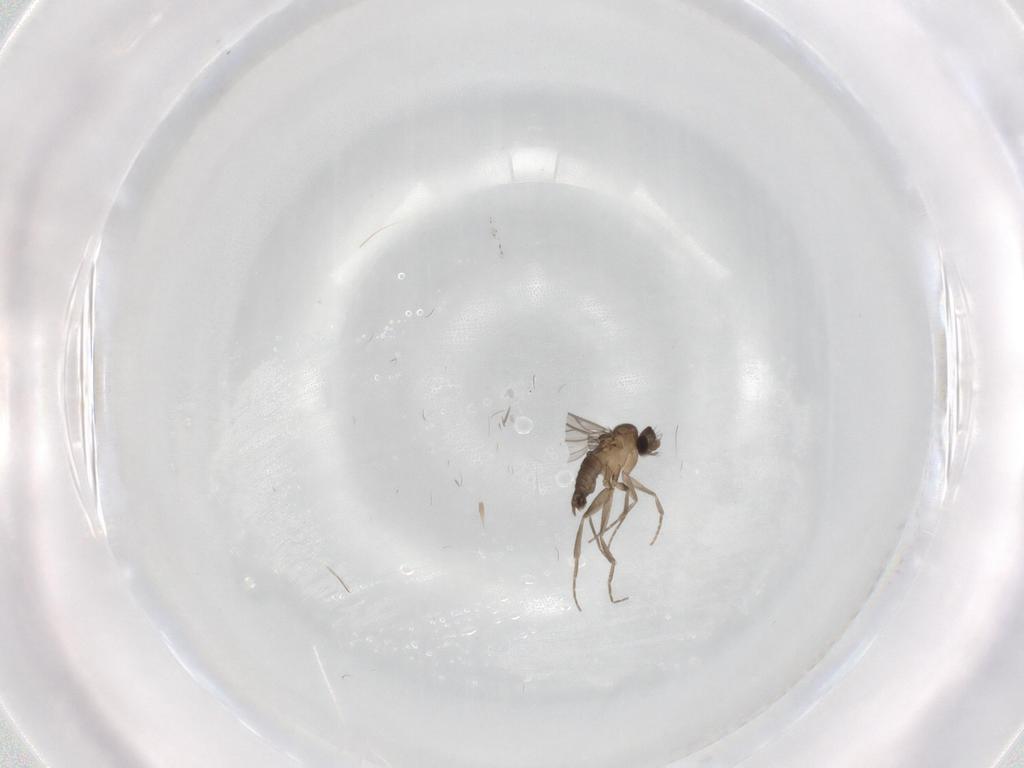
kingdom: Animalia
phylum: Arthropoda
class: Insecta
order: Diptera
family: Phoridae
